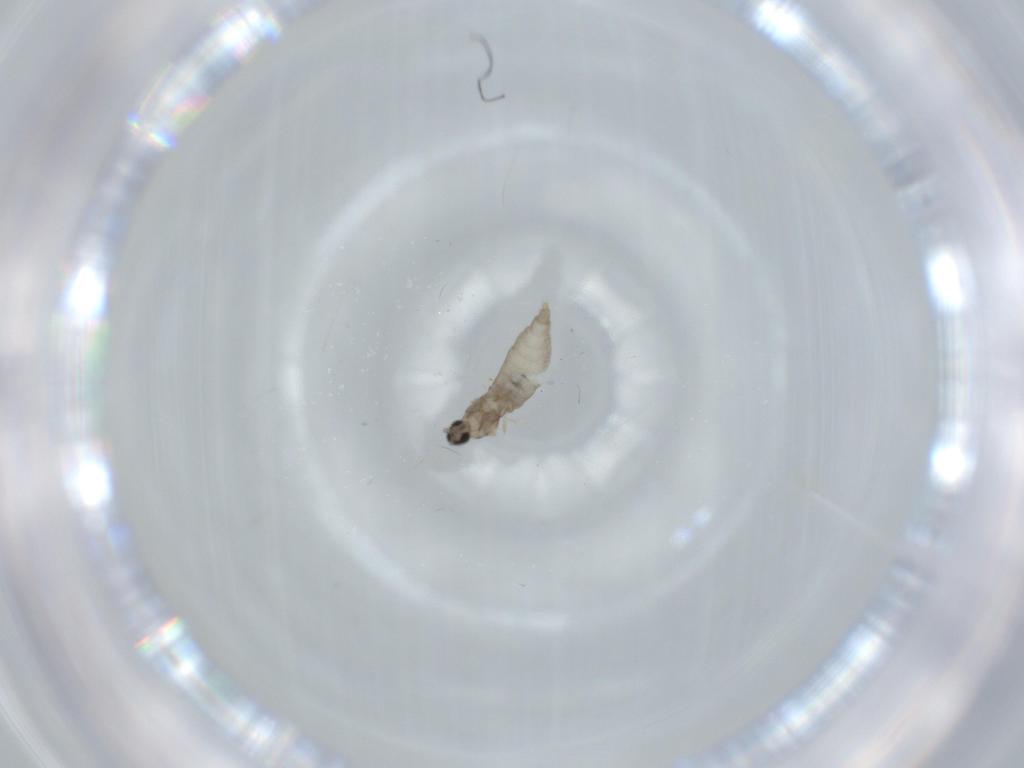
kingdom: Animalia
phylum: Arthropoda
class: Insecta
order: Diptera
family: Cecidomyiidae
